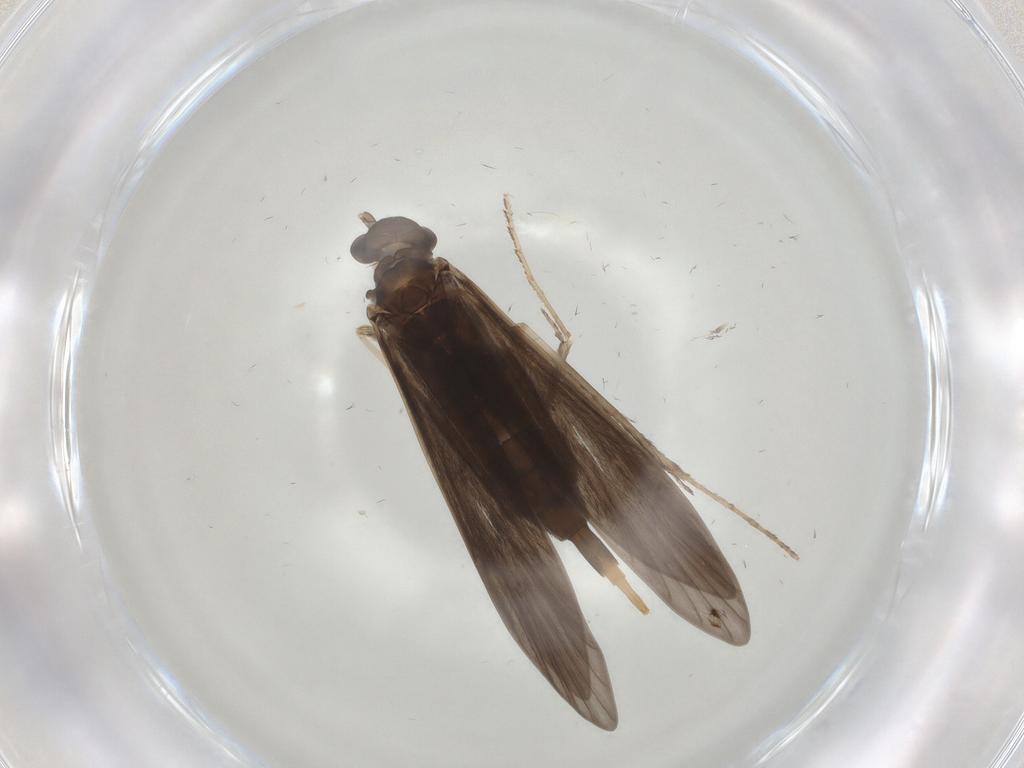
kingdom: Animalia
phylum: Arthropoda
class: Insecta
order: Trichoptera
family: Xiphocentronidae
